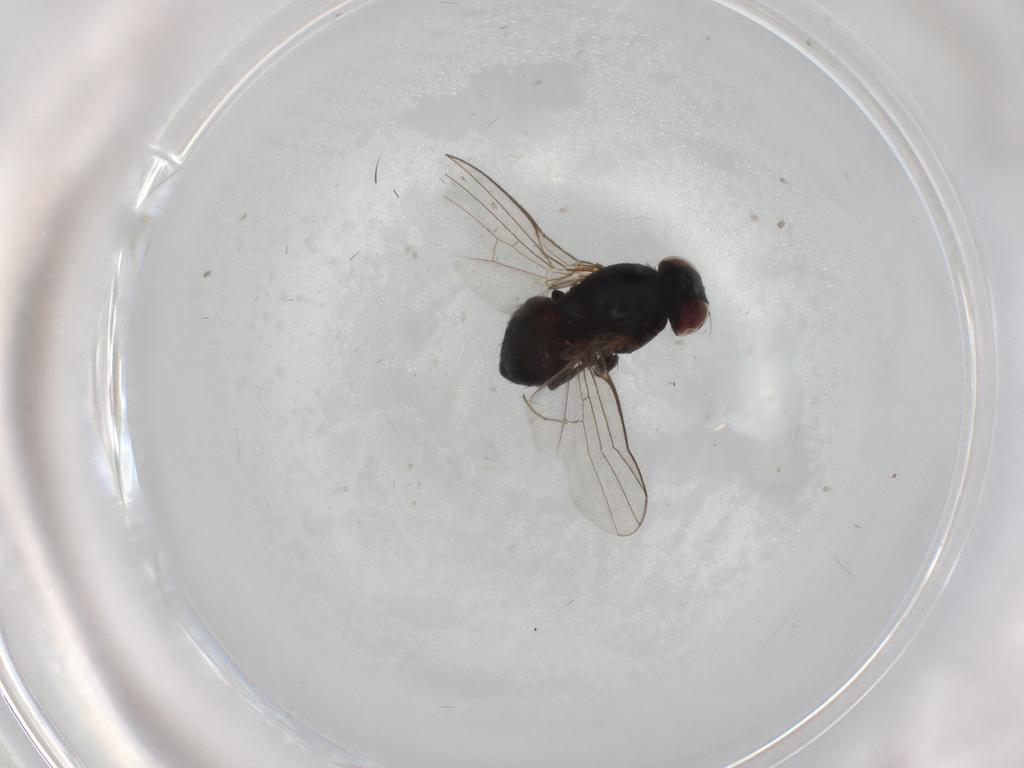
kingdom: Animalia
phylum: Arthropoda
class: Insecta
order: Diptera
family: Agromyzidae
